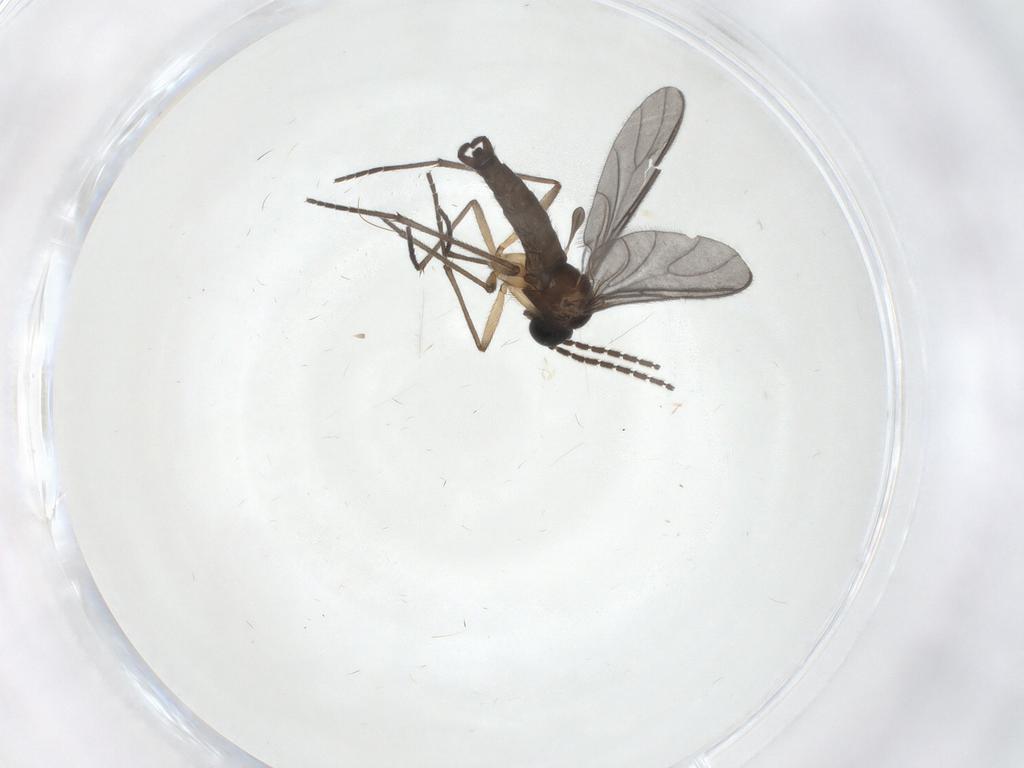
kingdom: Animalia
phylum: Arthropoda
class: Insecta
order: Diptera
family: Sciaridae
